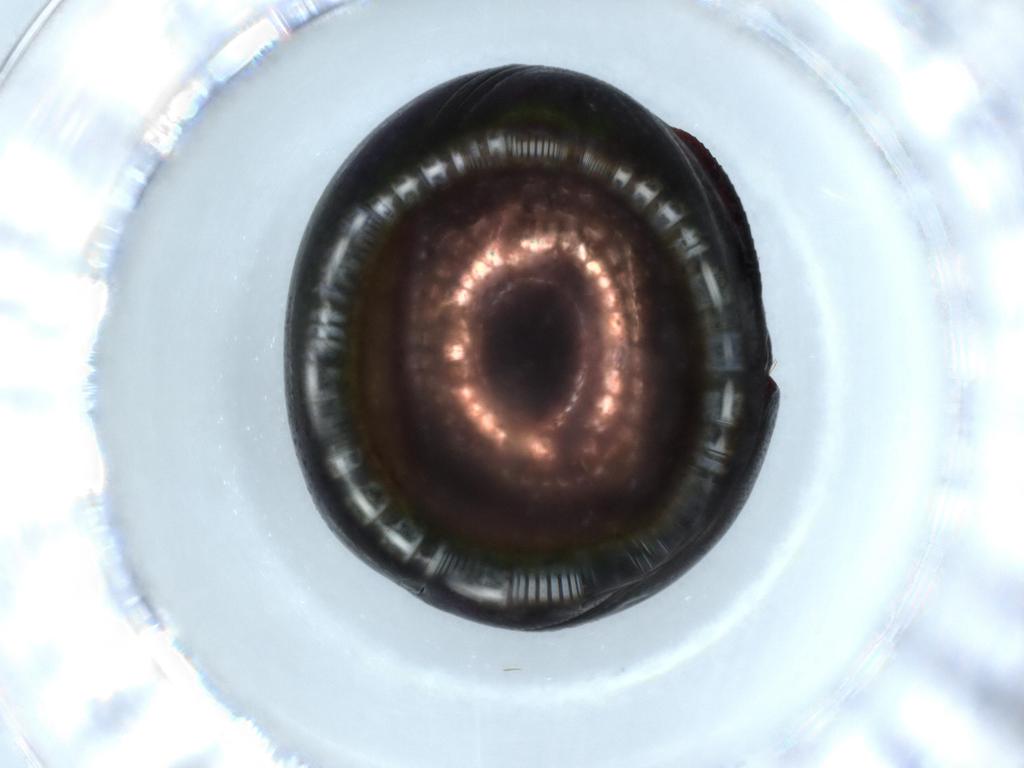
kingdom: Animalia
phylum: Arthropoda
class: Insecta
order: Coleoptera
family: Hybosoridae
